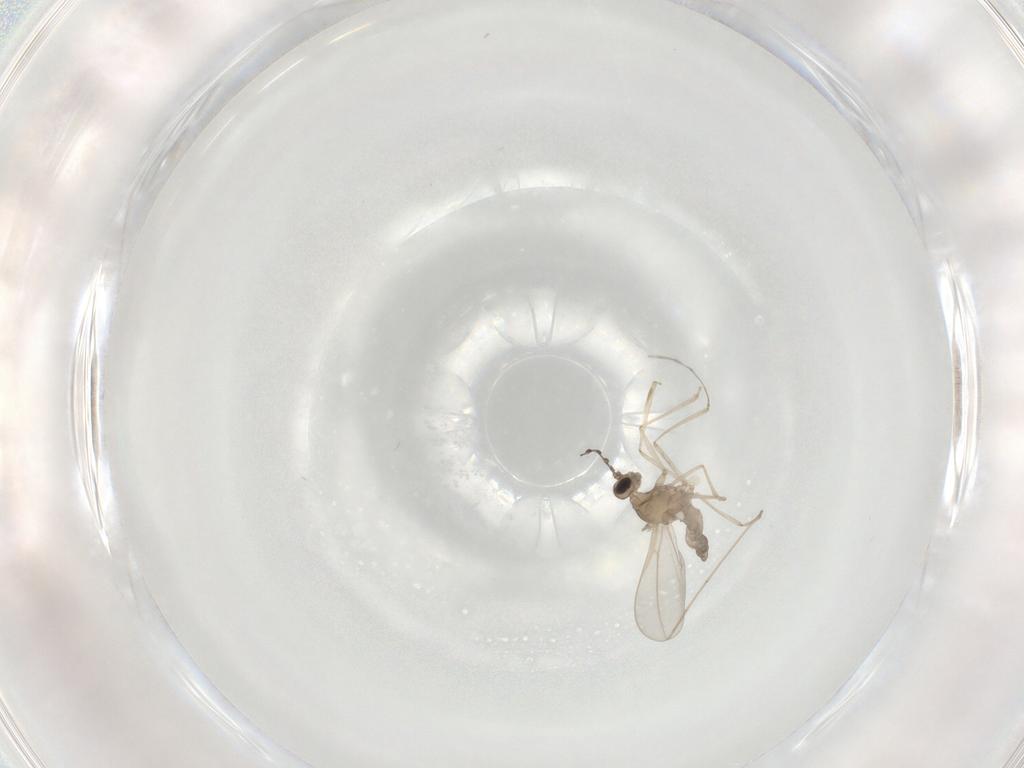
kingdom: Animalia
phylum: Arthropoda
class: Insecta
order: Diptera
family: Cecidomyiidae
